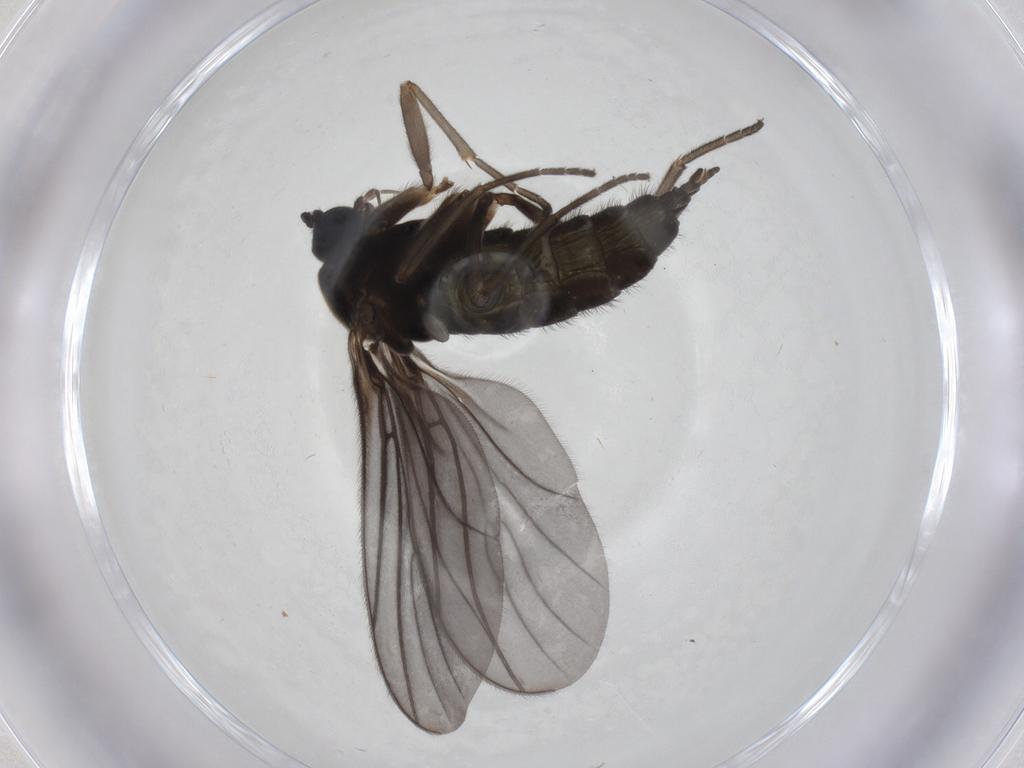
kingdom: Animalia
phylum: Arthropoda
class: Insecta
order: Diptera
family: Sciaridae
